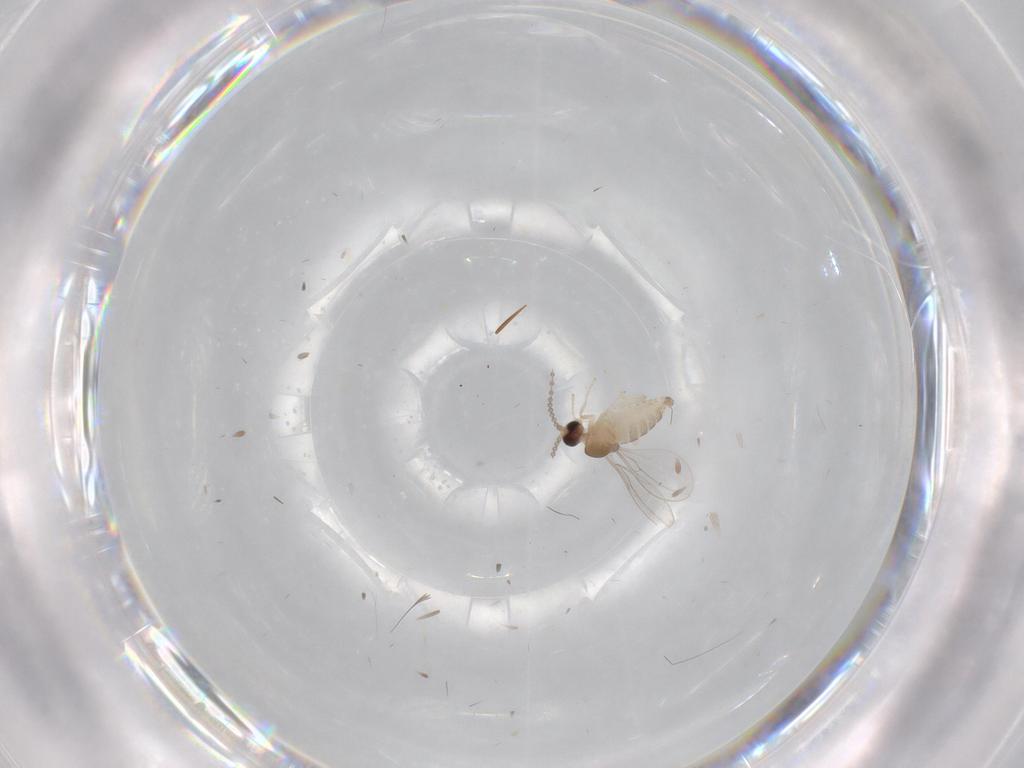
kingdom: Animalia
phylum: Arthropoda
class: Insecta
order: Diptera
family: Cecidomyiidae
